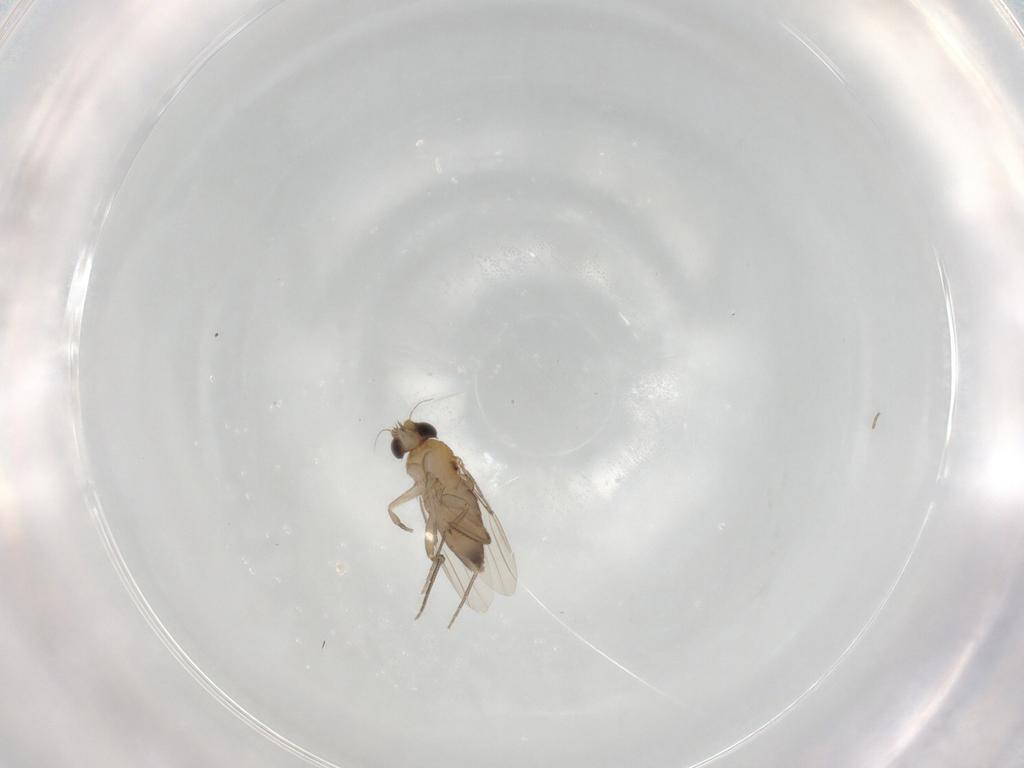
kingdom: Animalia
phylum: Arthropoda
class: Insecta
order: Diptera
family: Phoridae
